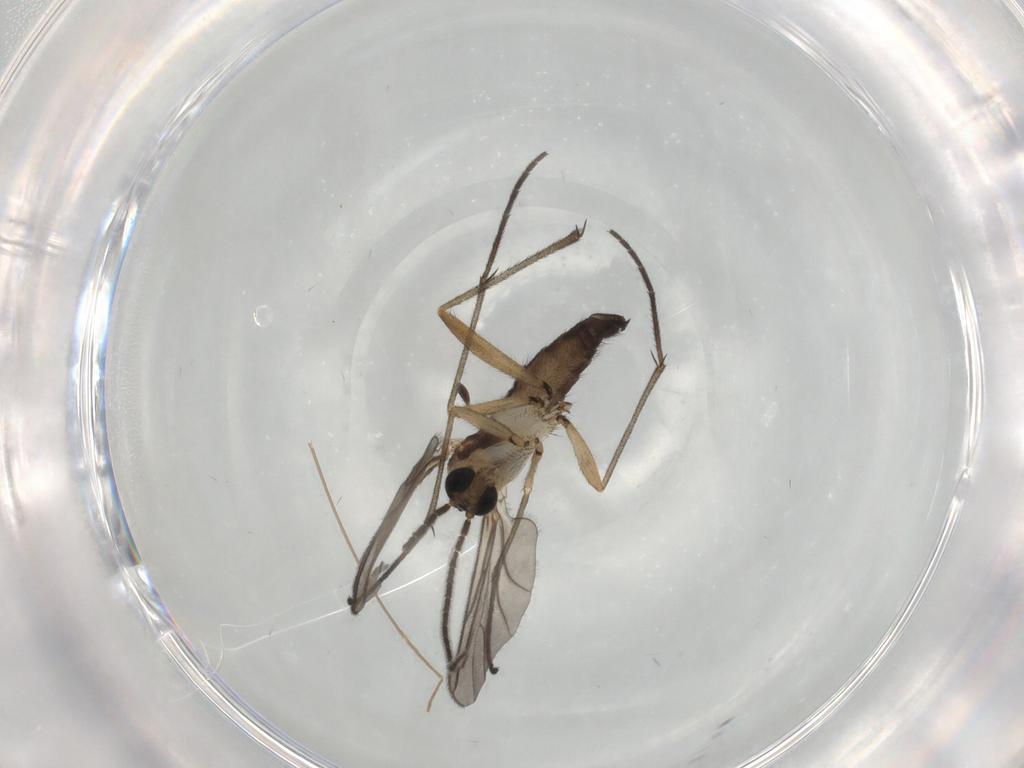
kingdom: Animalia
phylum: Arthropoda
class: Insecta
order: Diptera
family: Sciaridae
